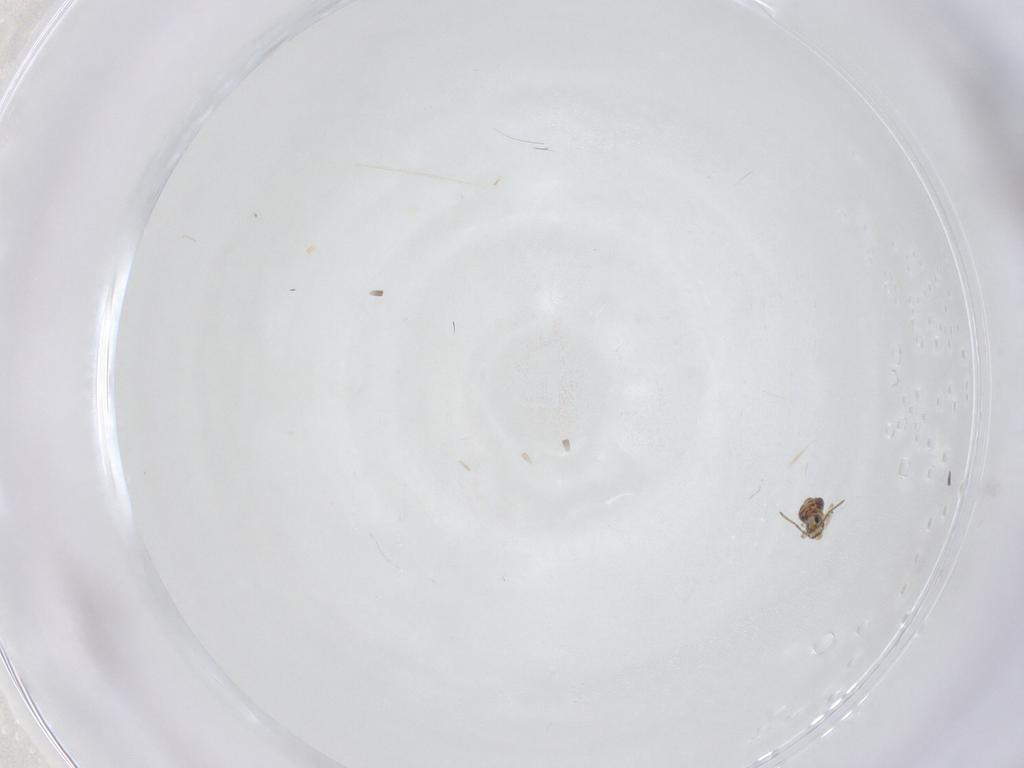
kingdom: Animalia
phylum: Arthropoda
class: Collembola
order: Symphypleona
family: Bourletiellidae
